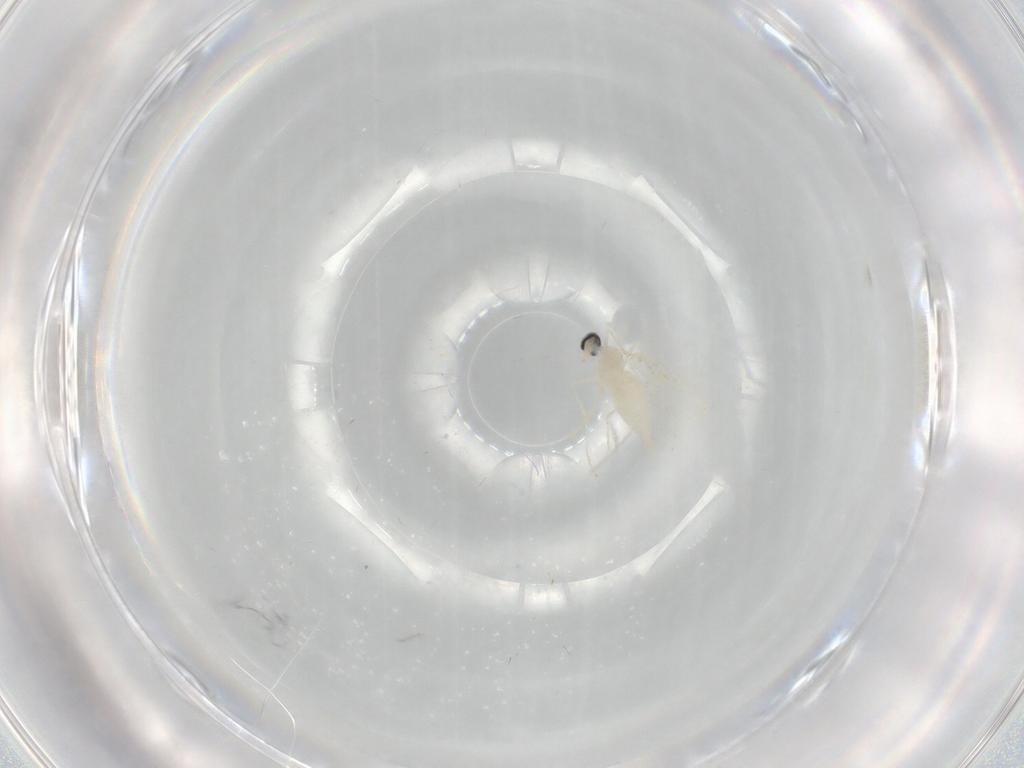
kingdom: Animalia
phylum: Arthropoda
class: Insecta
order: Diptera
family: Cecidomyiidae
